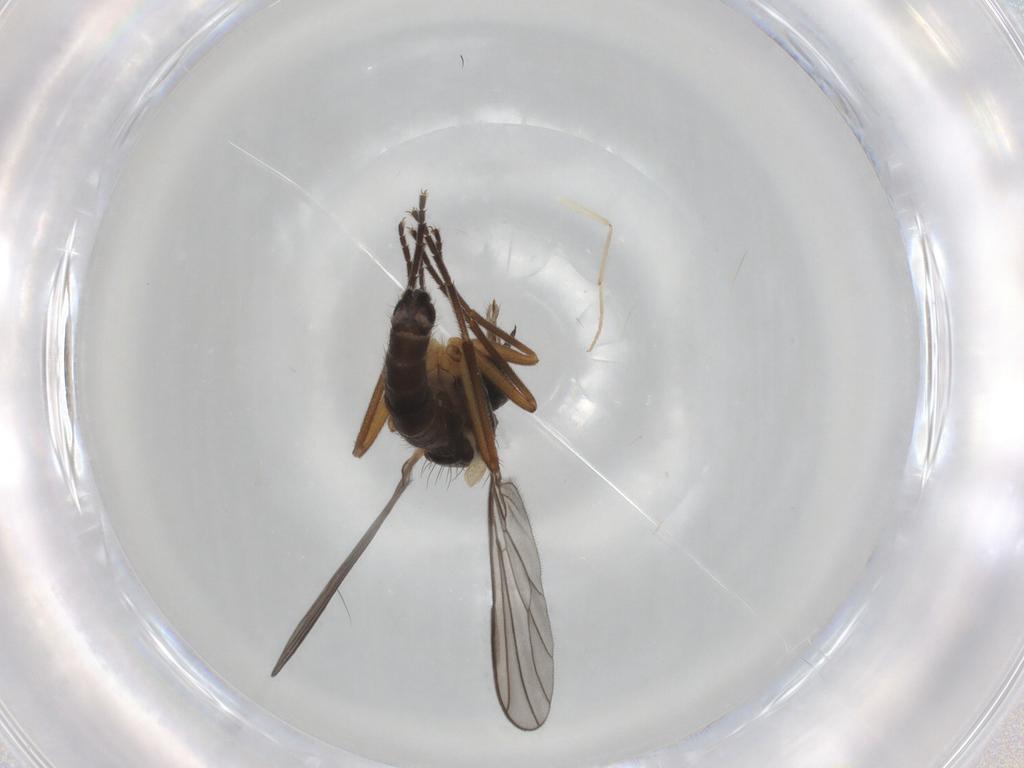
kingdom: Animalia
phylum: Arthropoda
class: Insecta
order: Diptera
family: Empididae
